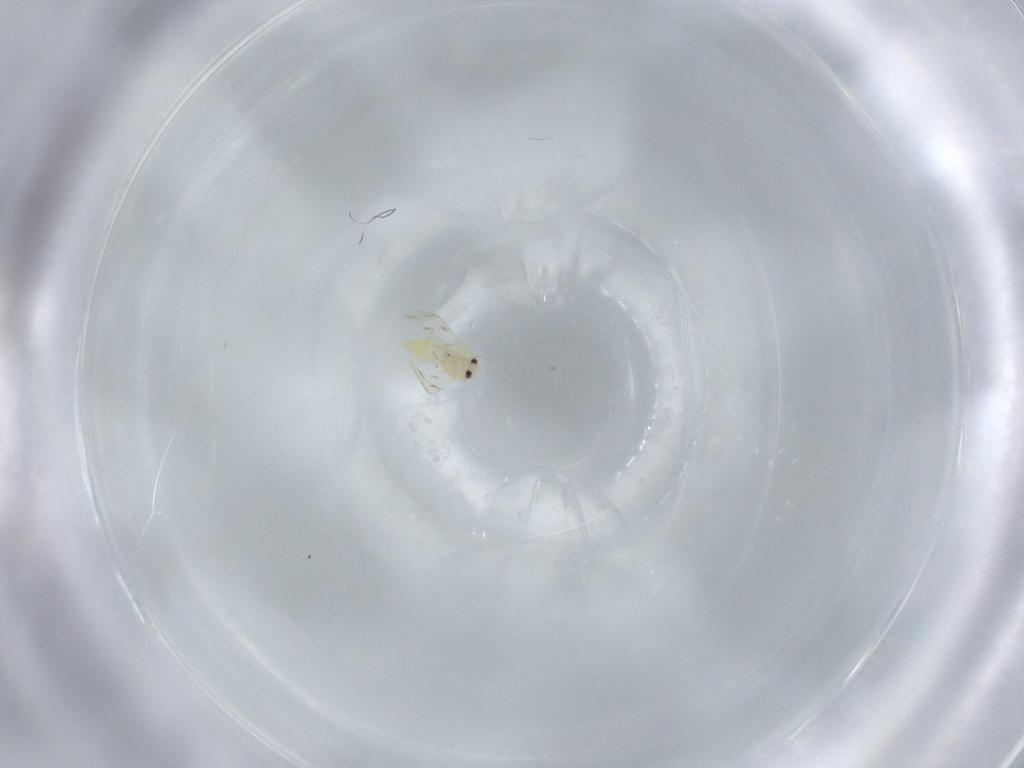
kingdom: Animalia
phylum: Arthropoda
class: Insecta
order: Hemiptera
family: Aleyrodidae
